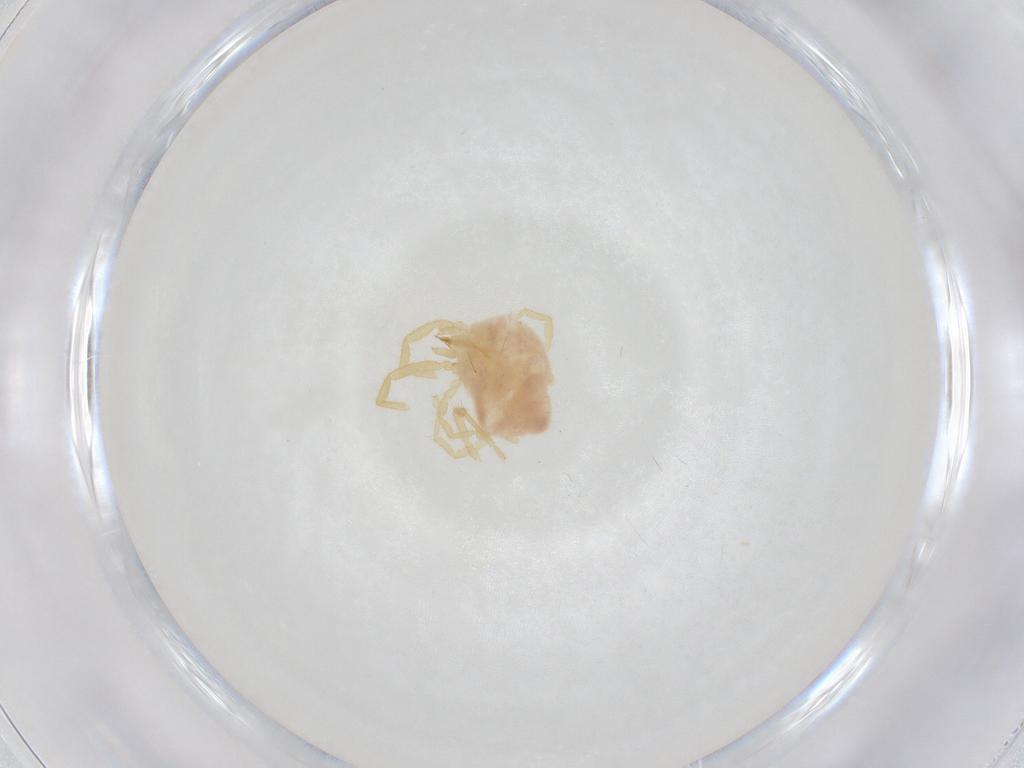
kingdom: Animalia
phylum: Arthropoda
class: Arachnida
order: Trombidiformes
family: Erythraeidae
